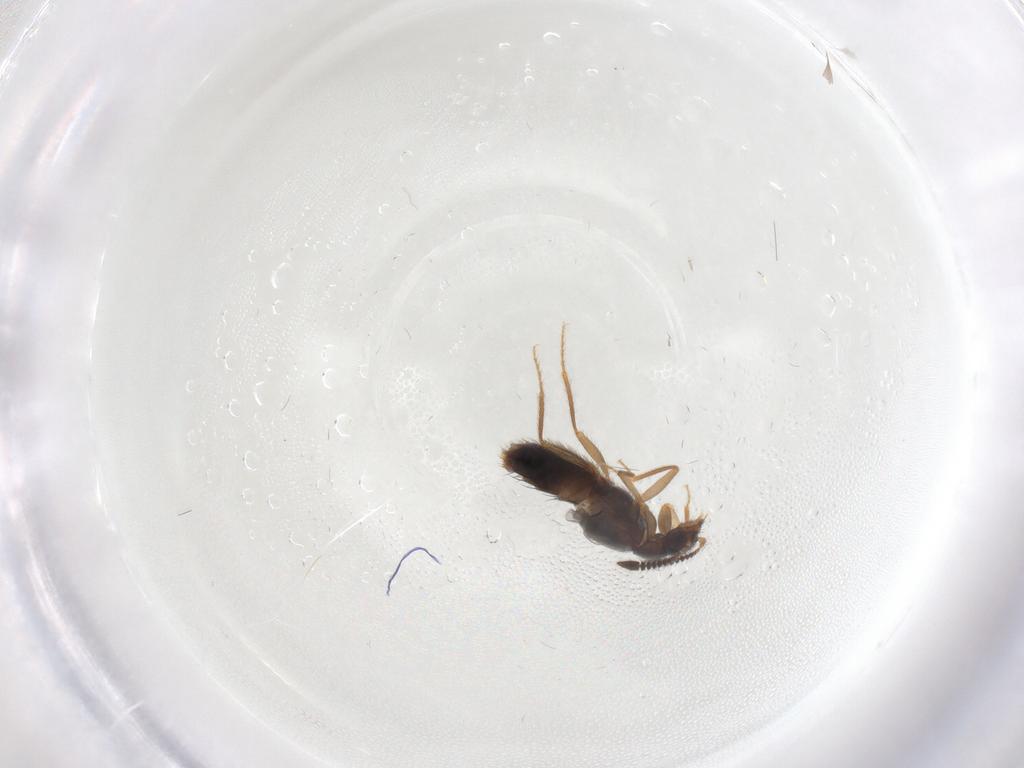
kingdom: Animalia
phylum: Arthropoda
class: Insecta
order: Coleoptera
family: Staphylinidae
